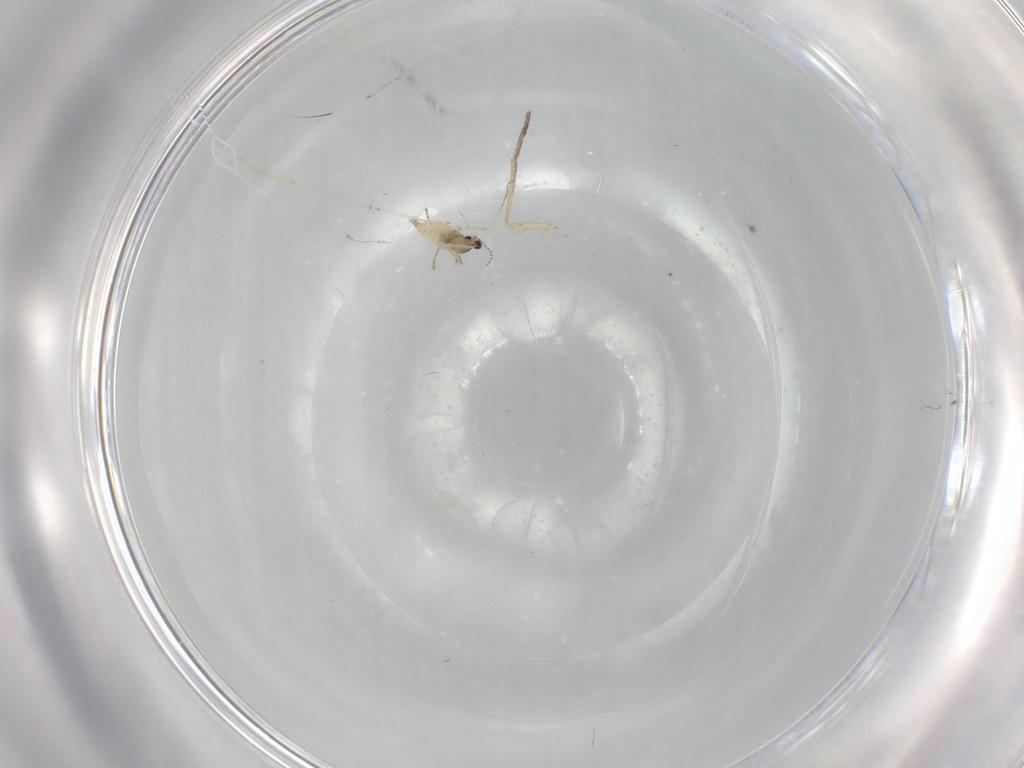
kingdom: Animalia
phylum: Arthropoda
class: Insecta
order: Diptera
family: Cecidomyiidae
